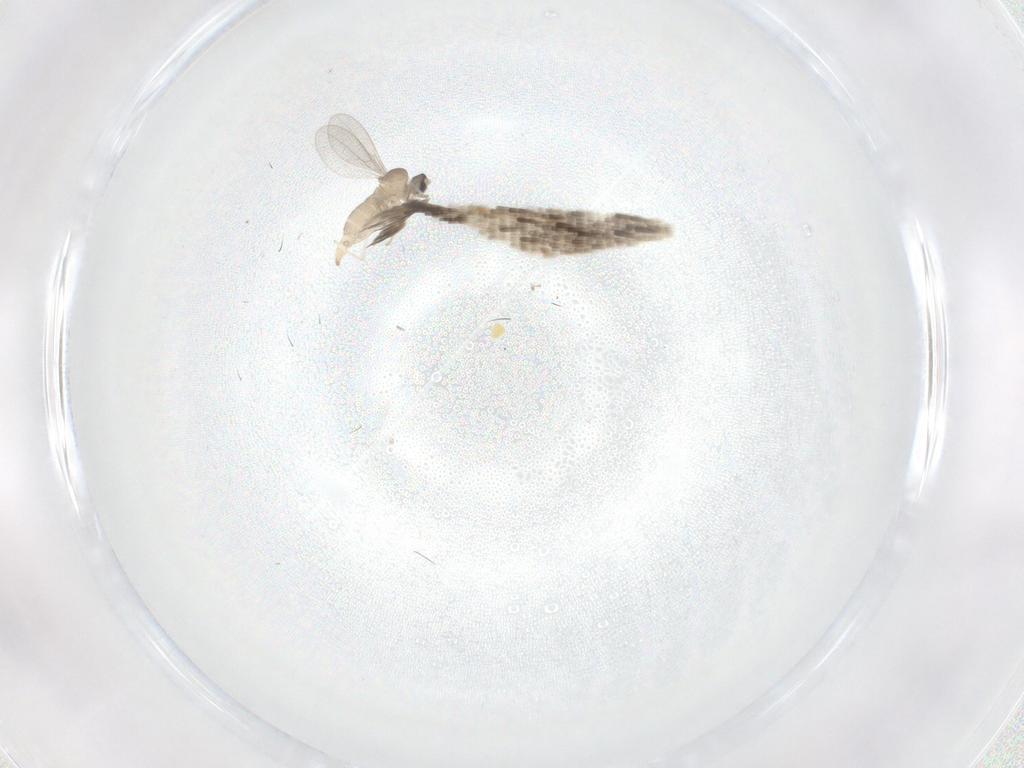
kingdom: Animalia
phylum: Arthropoda
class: Insecta
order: Diptera
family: Cecidomyiidae
